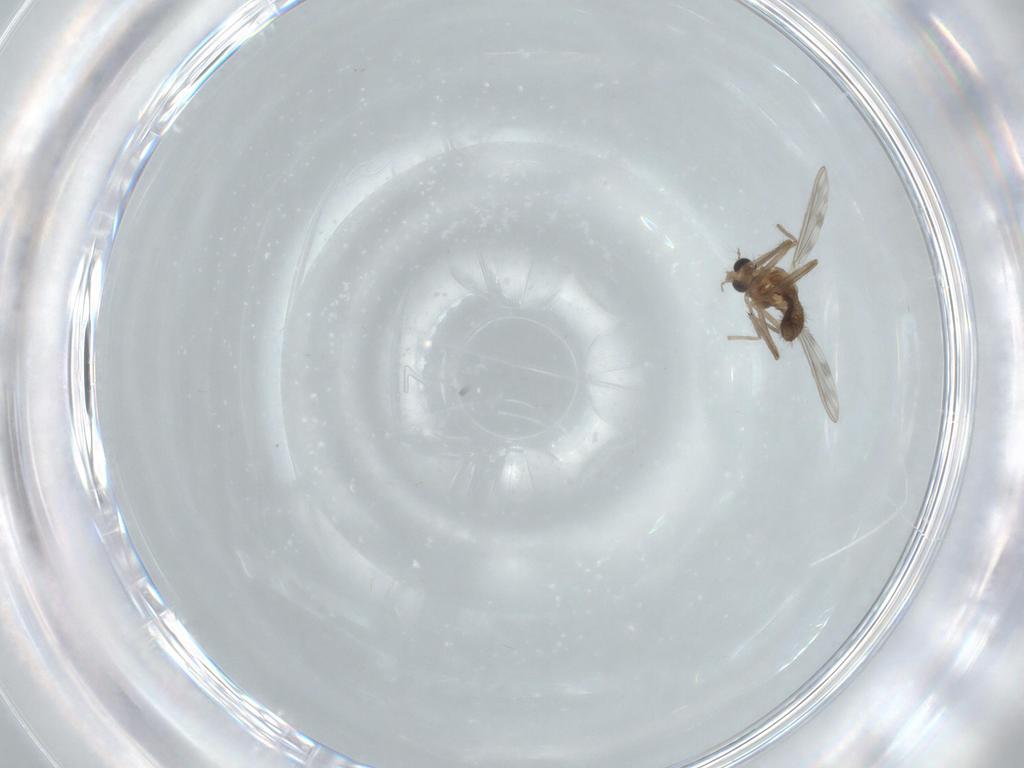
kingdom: Animalia
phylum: Arthropoda
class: Insecta
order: Diptera
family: Chironomidae
